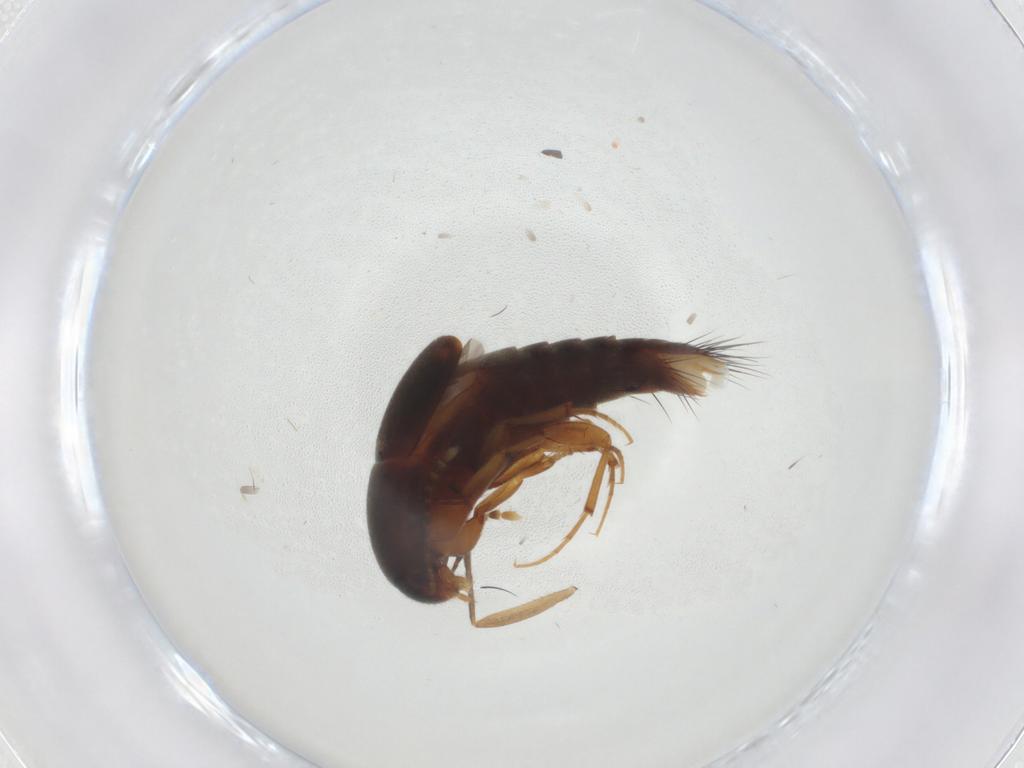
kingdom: Animalia
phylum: Arthropoda
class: Insecta
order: Coleoptera
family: Staphylinidae
